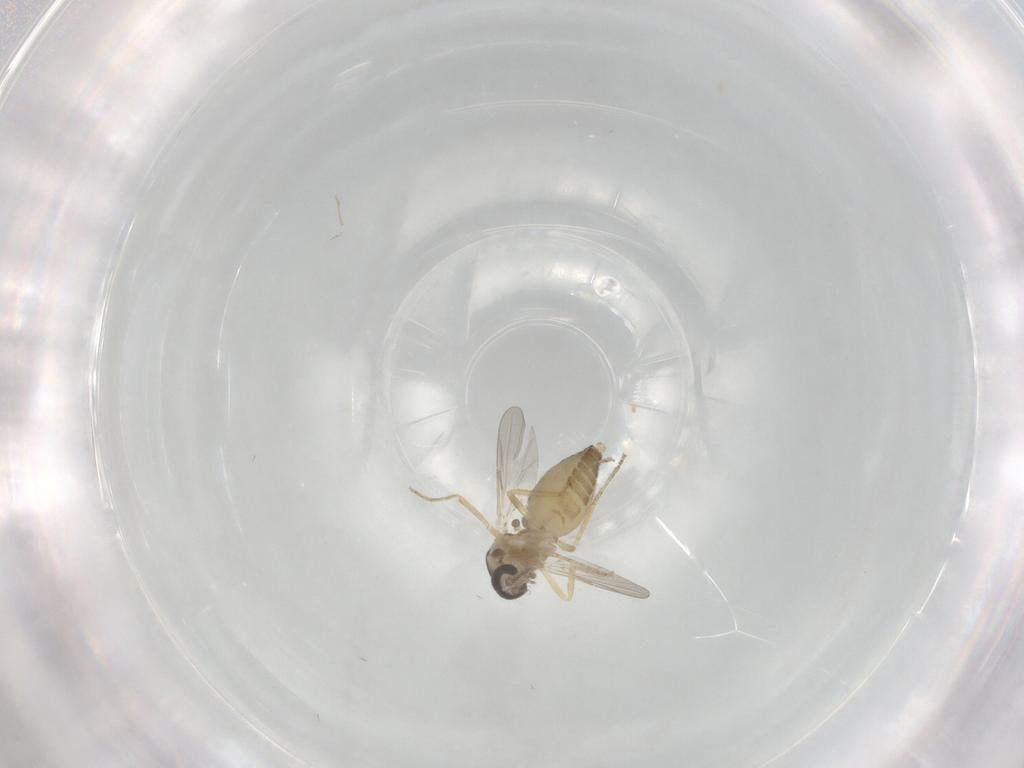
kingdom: Animalia
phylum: Arthropoda
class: Insecta
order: Diptera
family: Ceratopogonidae
